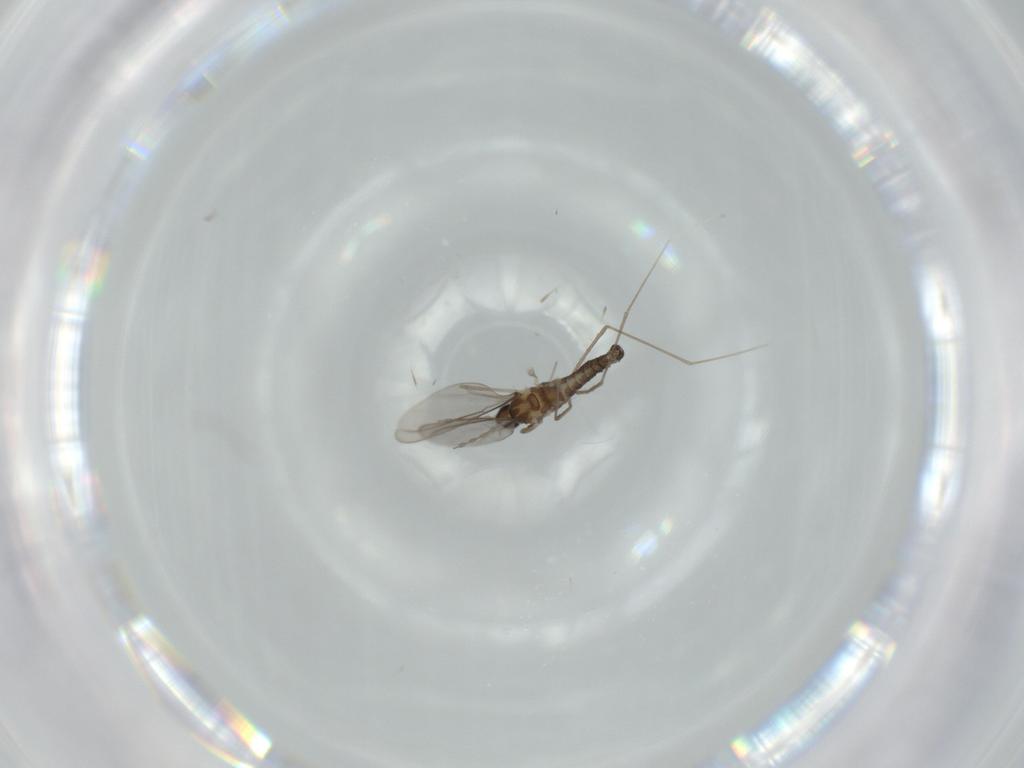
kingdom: Animalia
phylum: Arthropoda
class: Insecta
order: Diptera
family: Cecidomyiidae
